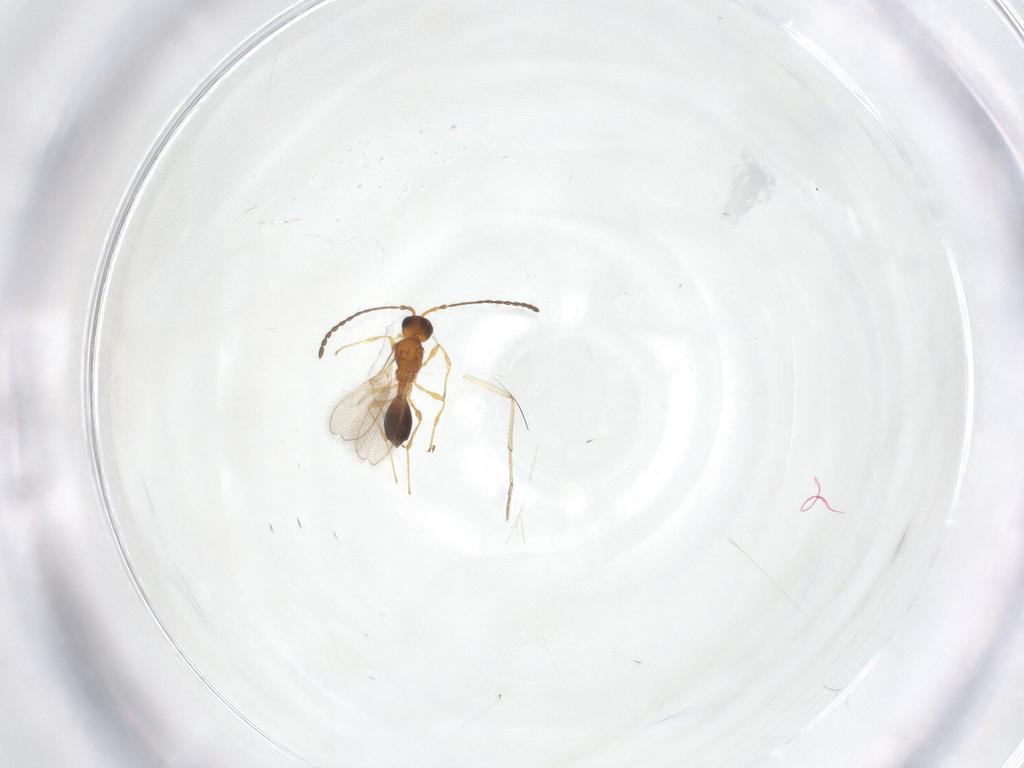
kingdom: Animalia
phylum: Arthropoda
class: Insecta
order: Hymenoptera
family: Diapriidae
